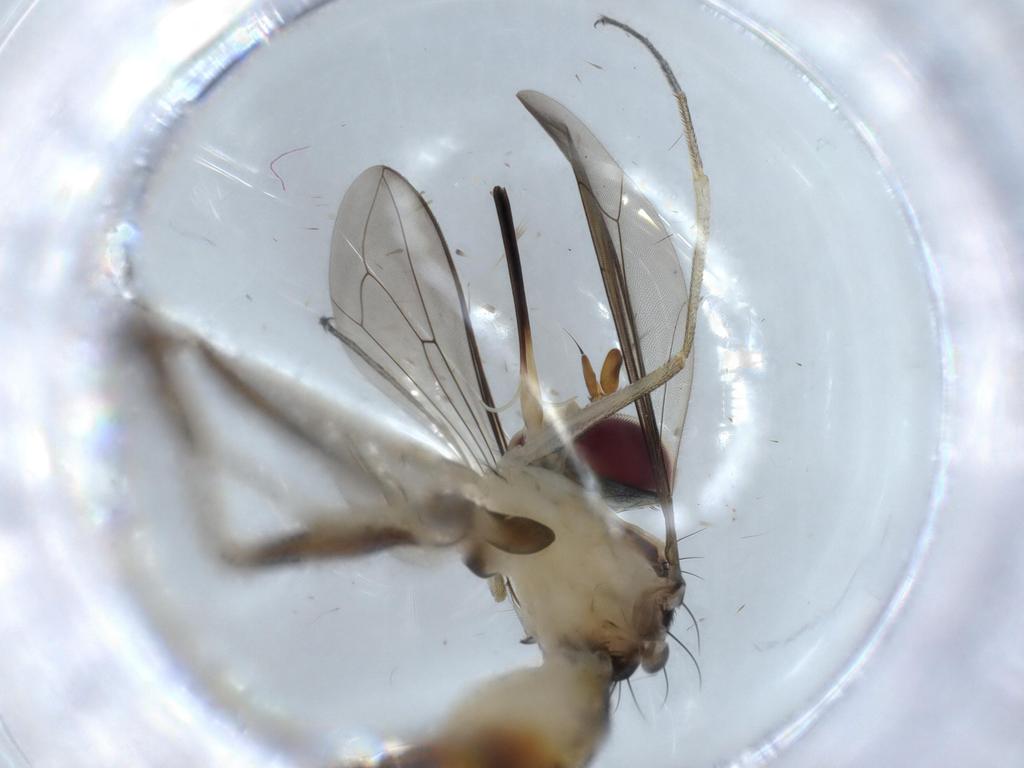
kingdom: Animalia
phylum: Arthropoda
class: Insecta
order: Diptera
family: Conopidae
